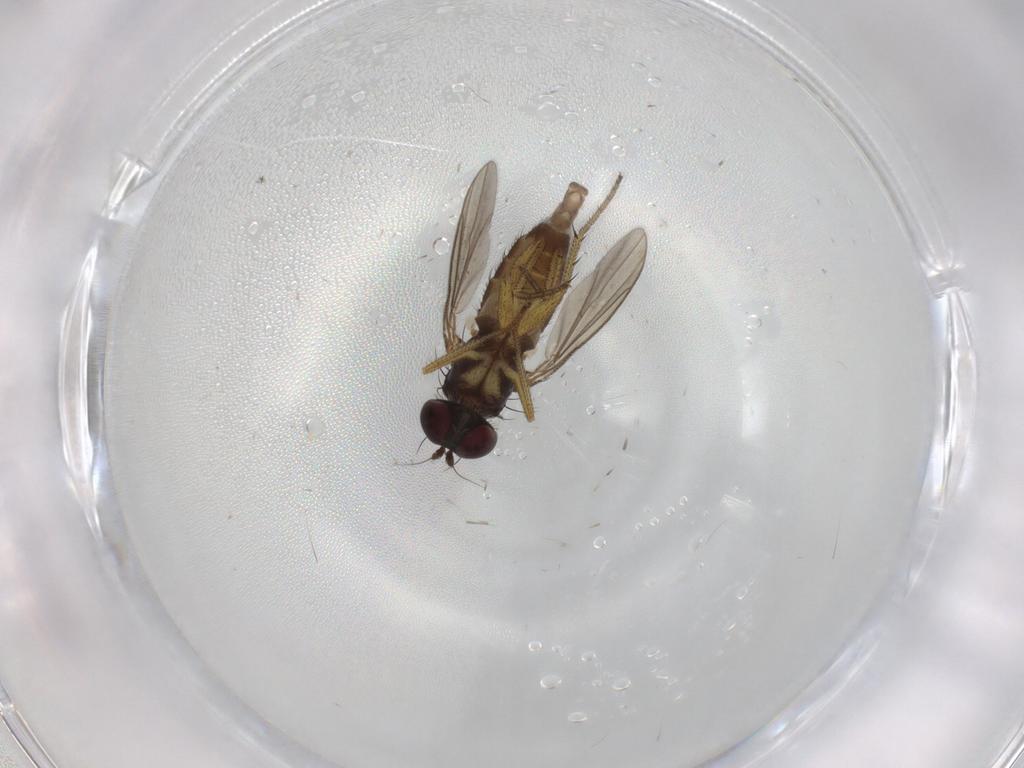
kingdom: Animalia
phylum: Arthropoda
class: Insecta
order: Diptera
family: Dolichopodidae
